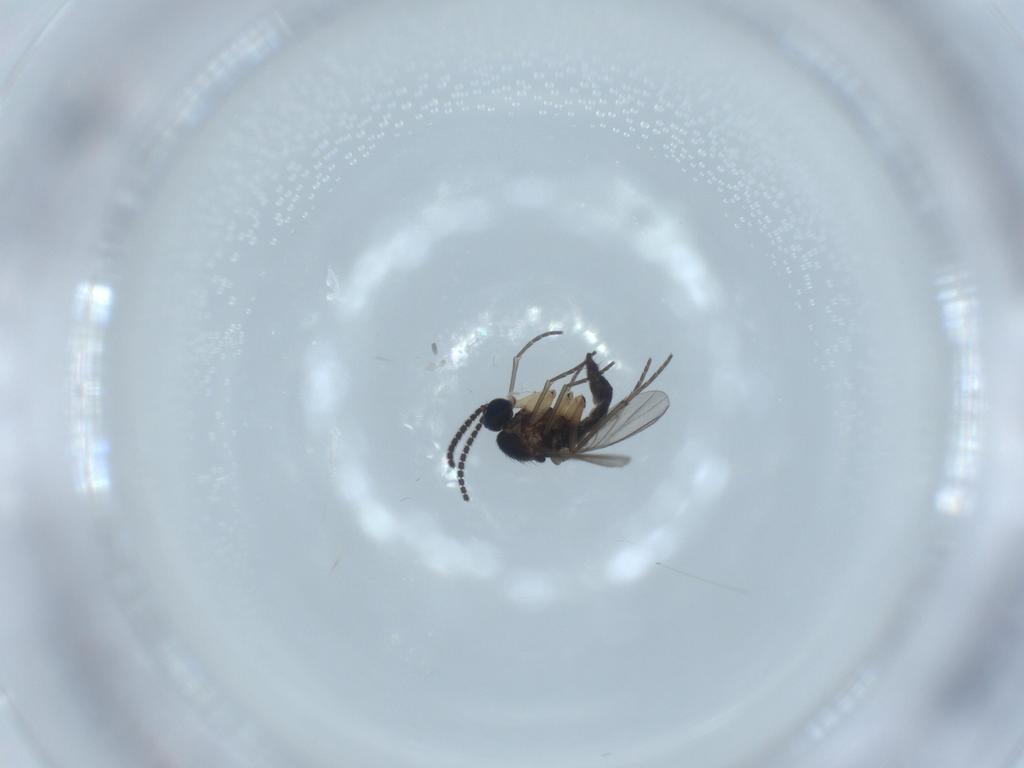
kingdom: Animalia
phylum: Arthropoda
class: Insecta
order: Diptera
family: Sciaridae
